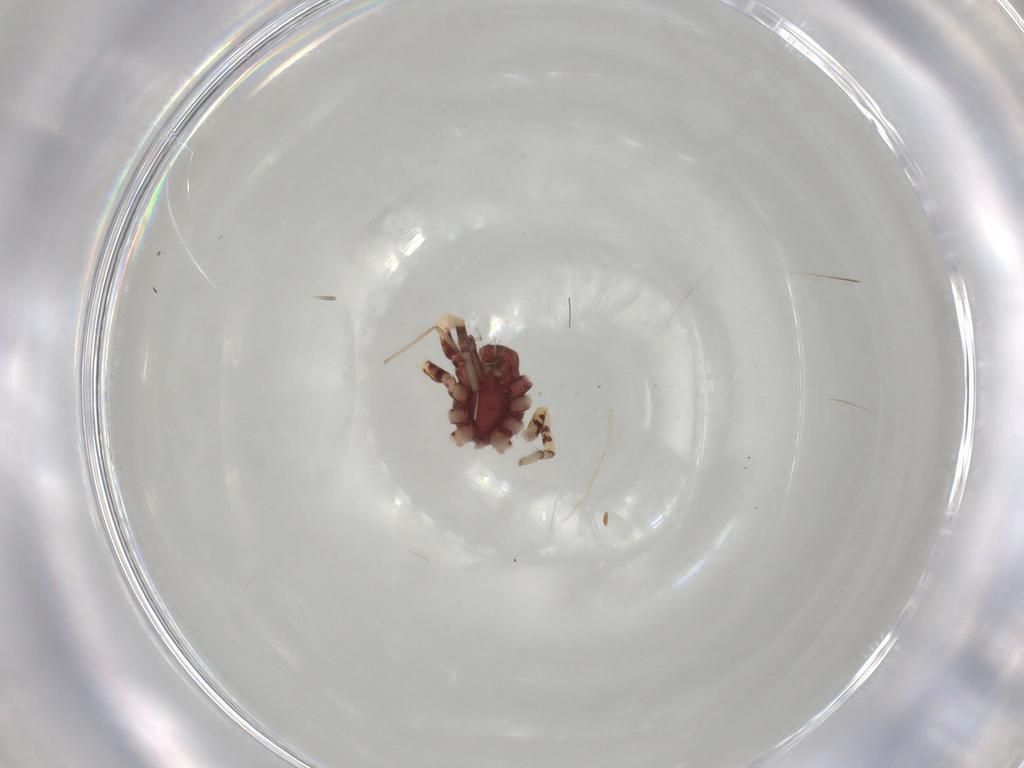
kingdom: Animalia
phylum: Arthropoda
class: Arachnida
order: Araneae
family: Corinnidae
